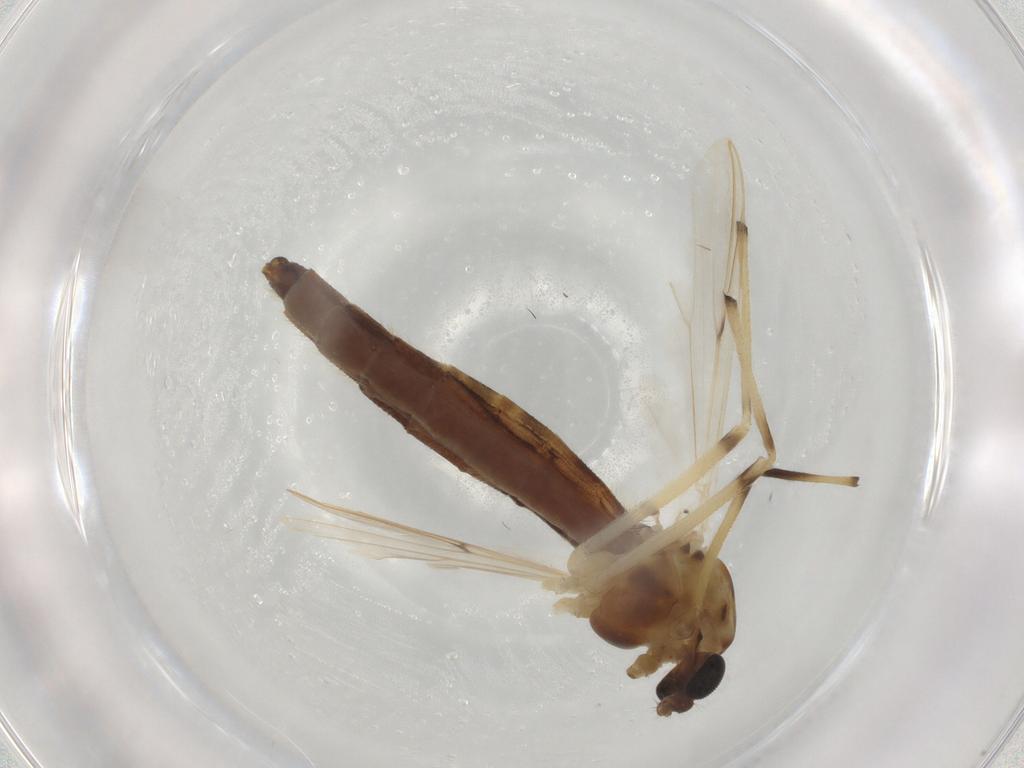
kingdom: Animalia
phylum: Arthropoda
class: Insecta
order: Diptera
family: Chironomidae
